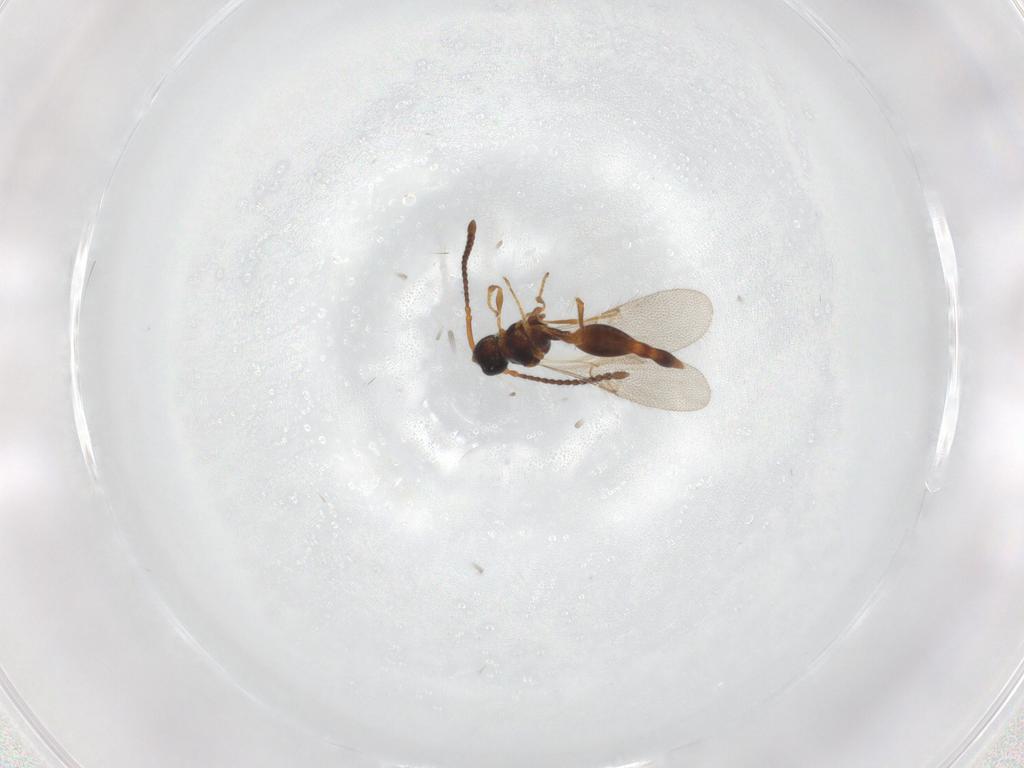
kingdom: Animalia
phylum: Arthropoda
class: Insecta
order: Hymenoptera
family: Diapriidae
